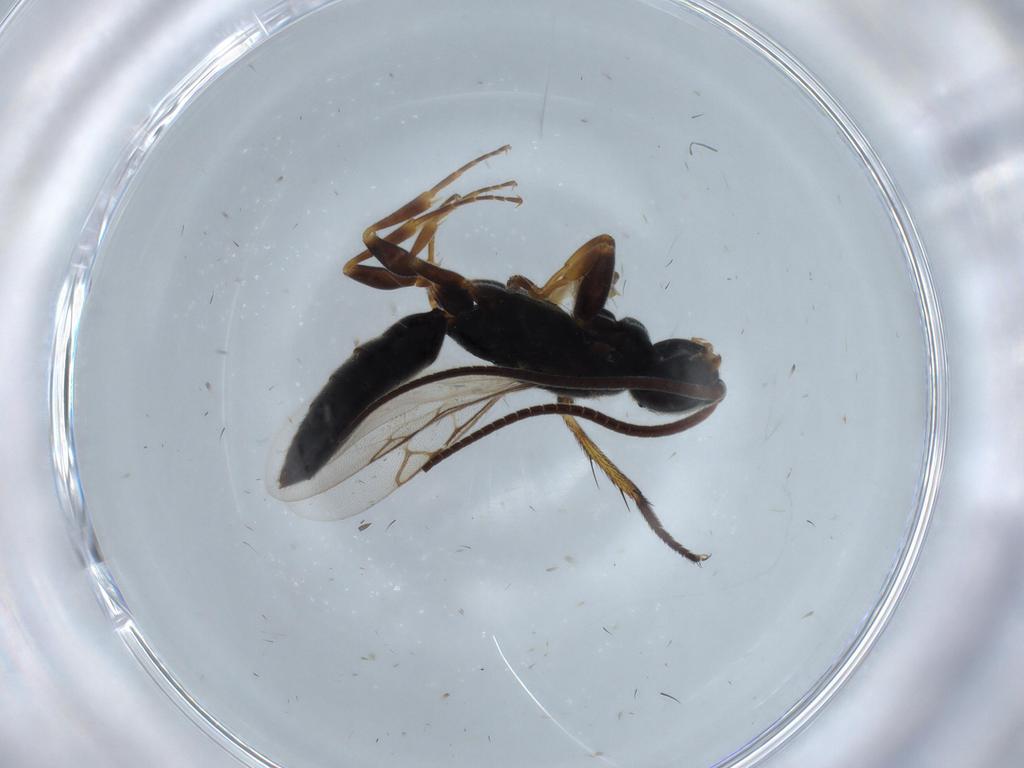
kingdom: Animalia
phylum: Arthropoda
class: Insecta
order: Hymenoptera
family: Sclerogibbidae
